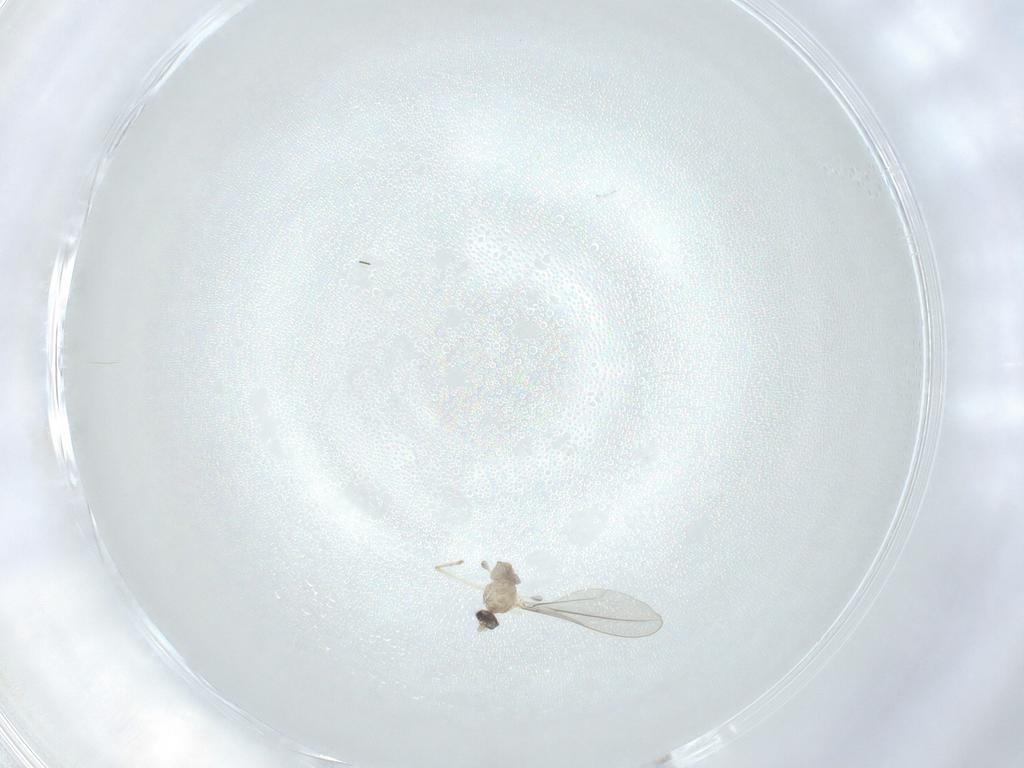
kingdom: Animalia
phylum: Arthropoda
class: Insecta
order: Diptera
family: Cecidomyiidae
